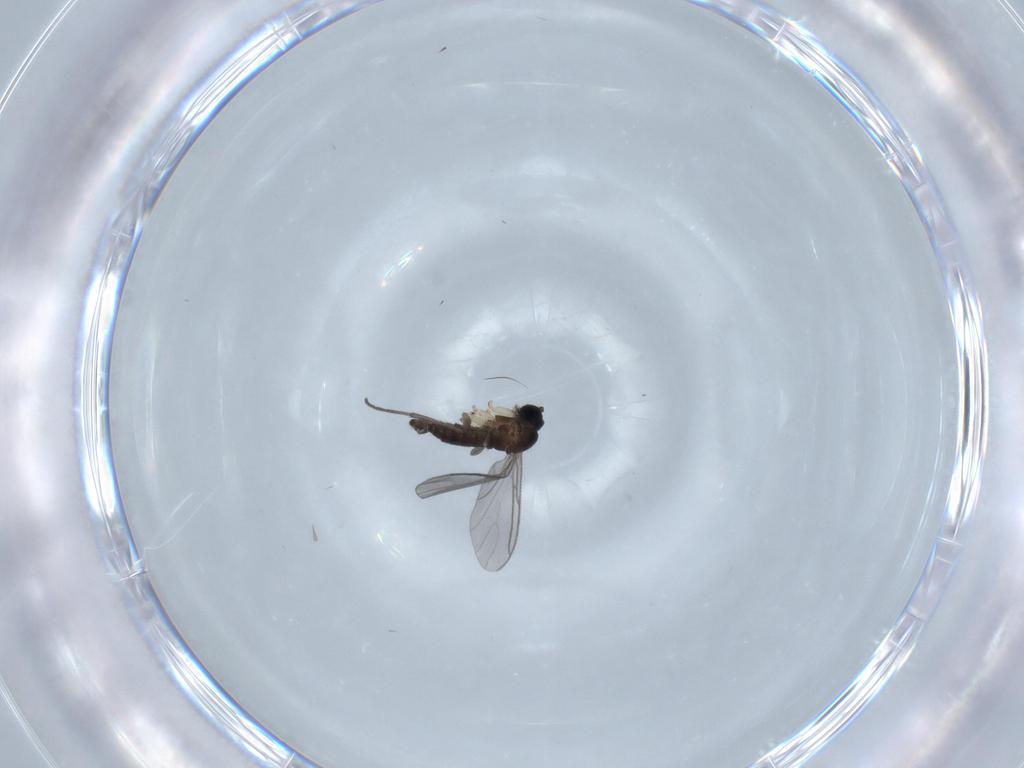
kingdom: Animalia
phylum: Arthropoda
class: Insecta
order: Diptera
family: Sciaridae
